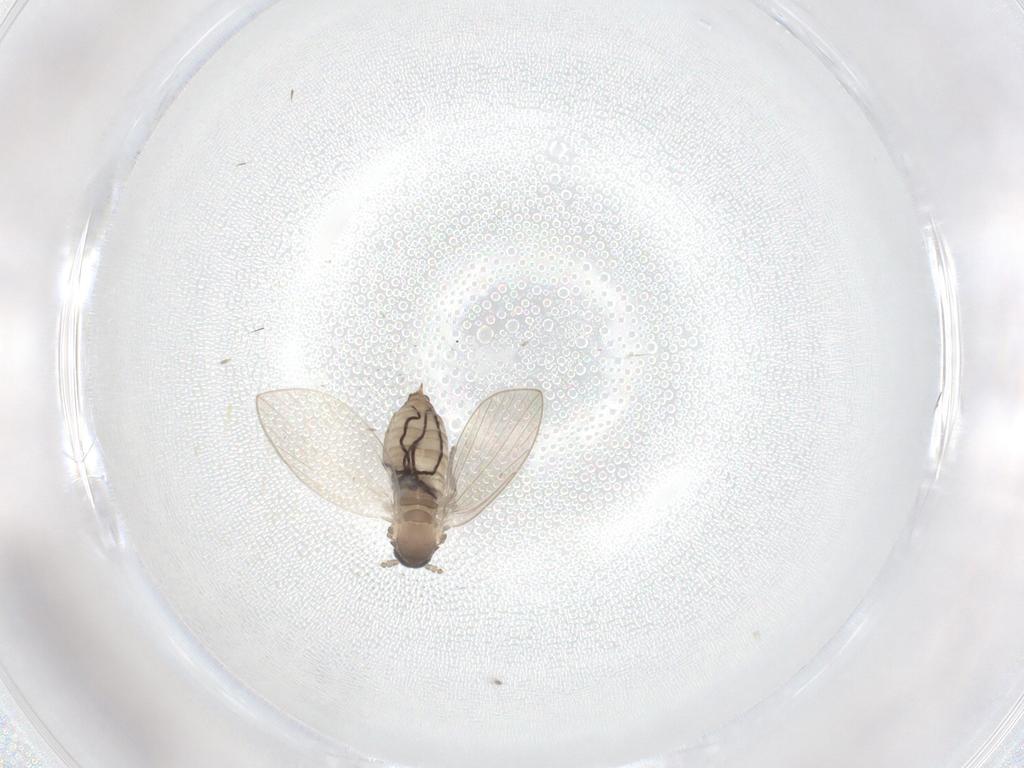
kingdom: Animalia
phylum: Arthropoda
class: Insecta
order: Diptera
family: Psychodidae
